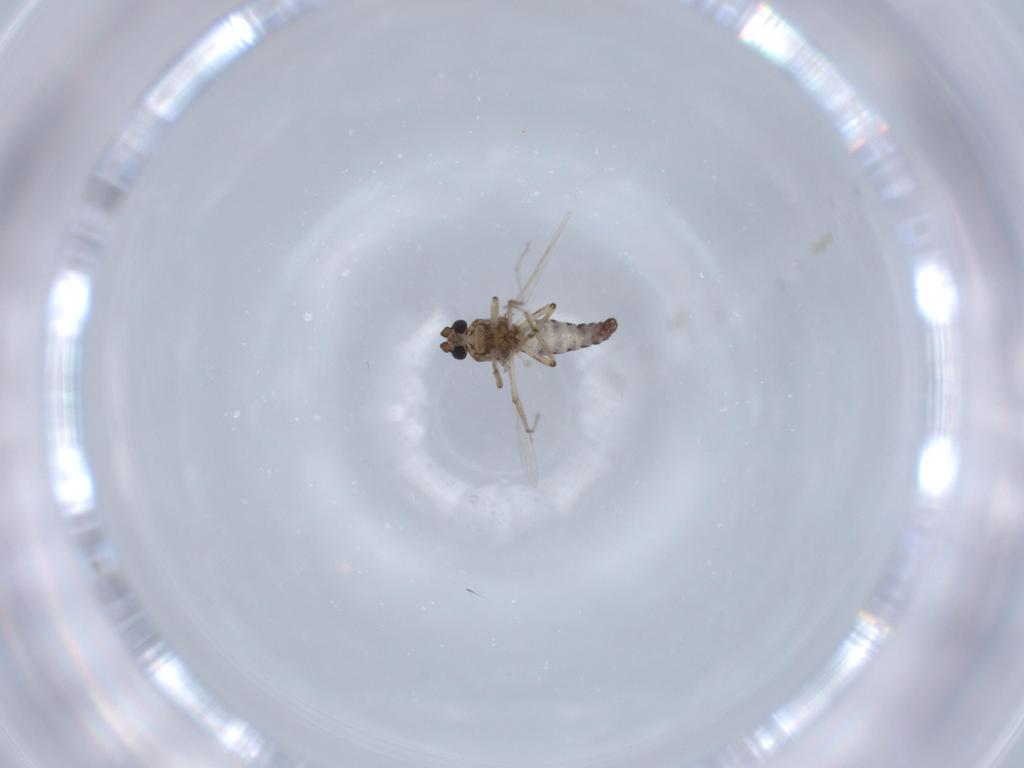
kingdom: Animalia
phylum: Arthropoda
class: Insecta
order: Diptera
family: Ceratopogonidae
